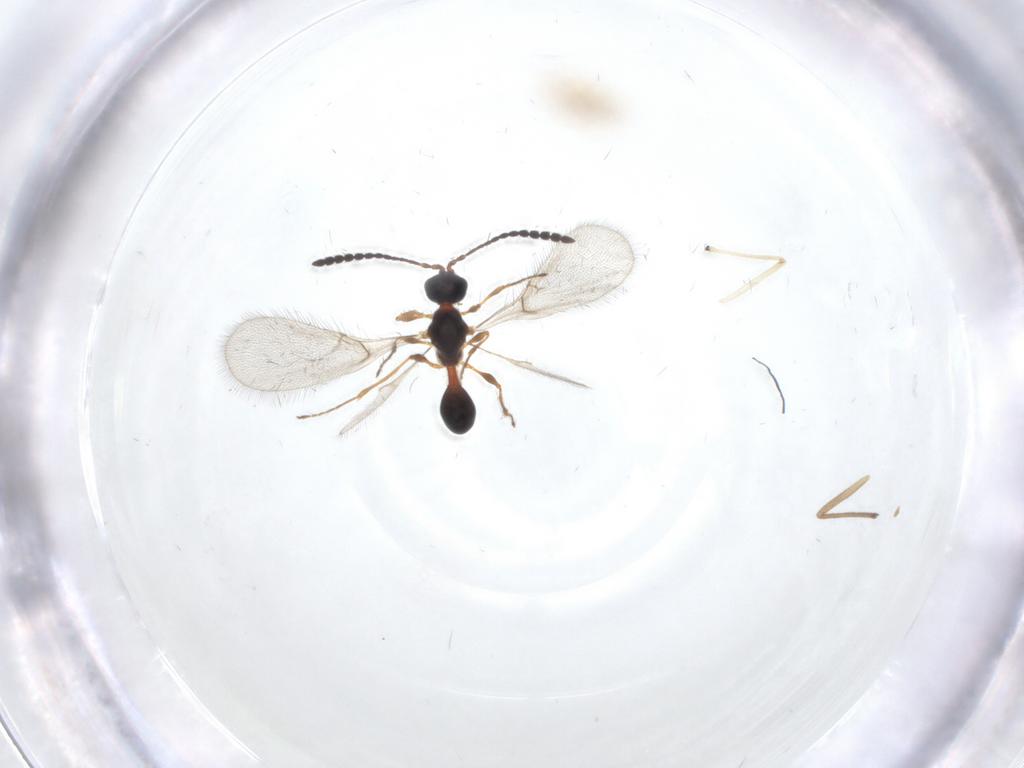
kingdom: Animalia
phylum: Arthropoda
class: Insecta
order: Hymenoptera
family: Diapriidae
